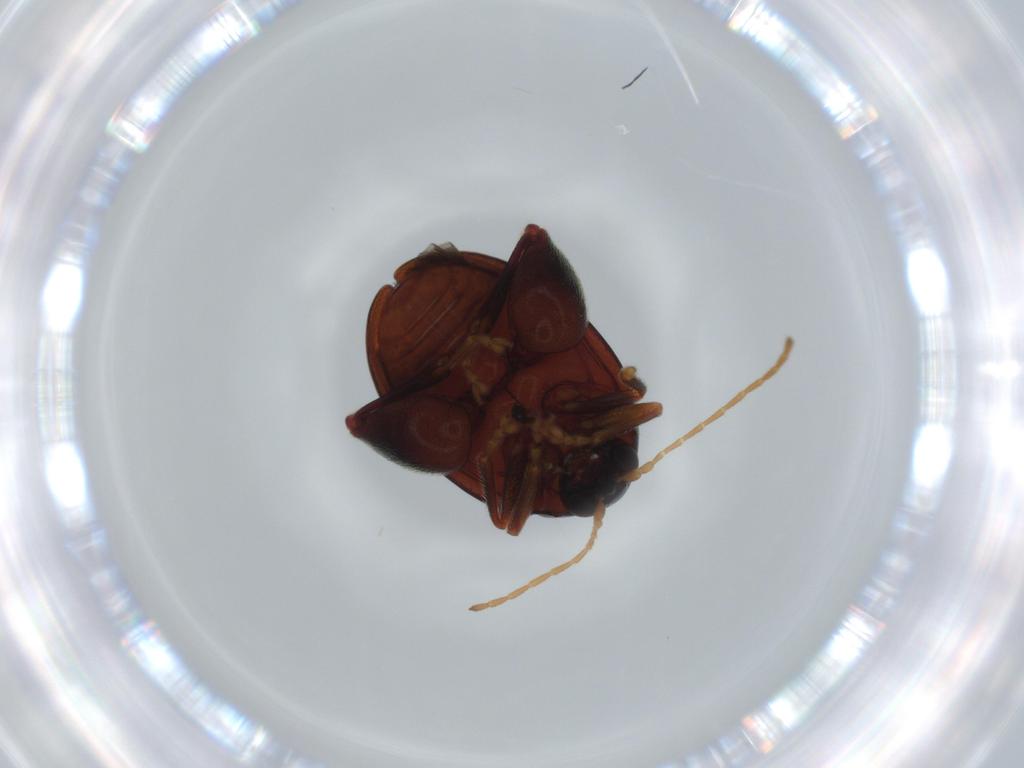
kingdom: Animalia
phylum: Arthropoda
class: Insecta
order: Coleoptera
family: Chrysomelidae
